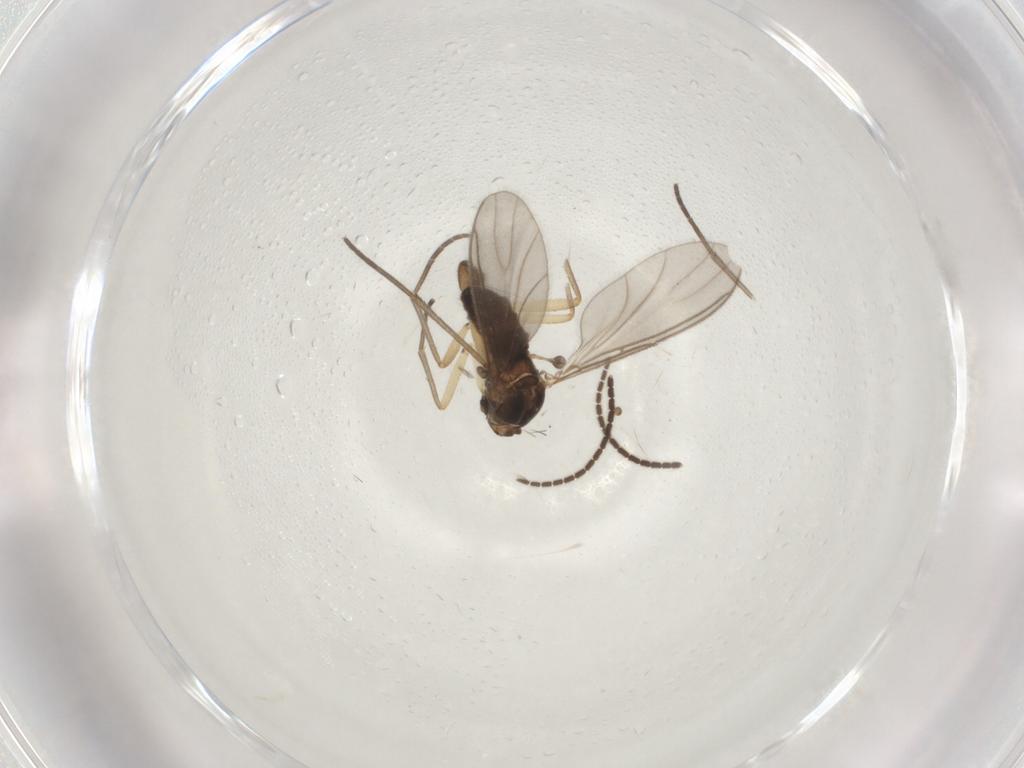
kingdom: Animalia
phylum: Arthropoda
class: Insecta
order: Diptera
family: Sciaridae
